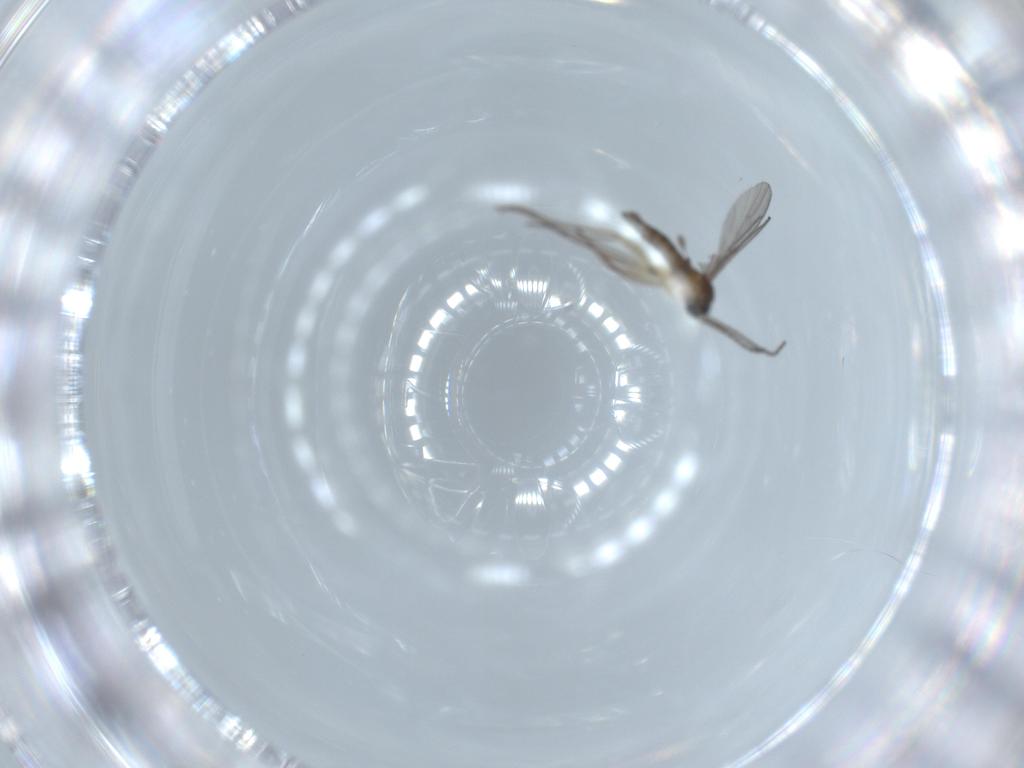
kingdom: Animalia
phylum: Arthropoda
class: Insecta
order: Diptera
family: Sciaridae
